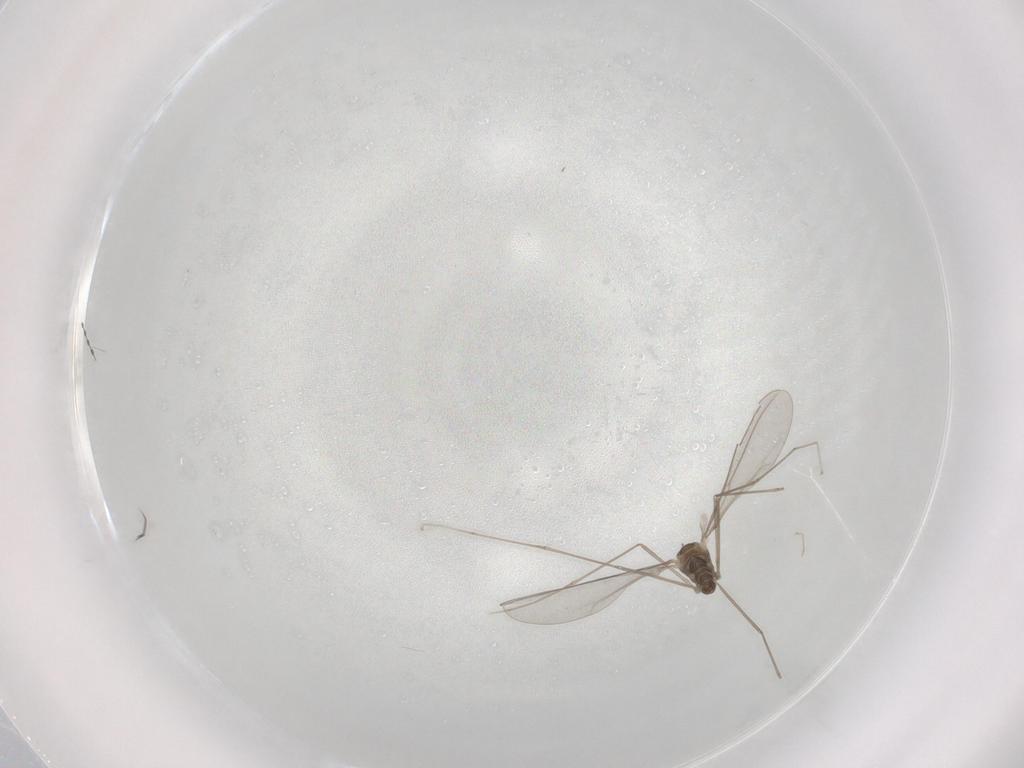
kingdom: Animalia
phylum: Arthropoda
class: Insecta
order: Diptera
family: Cecidomyiidae
